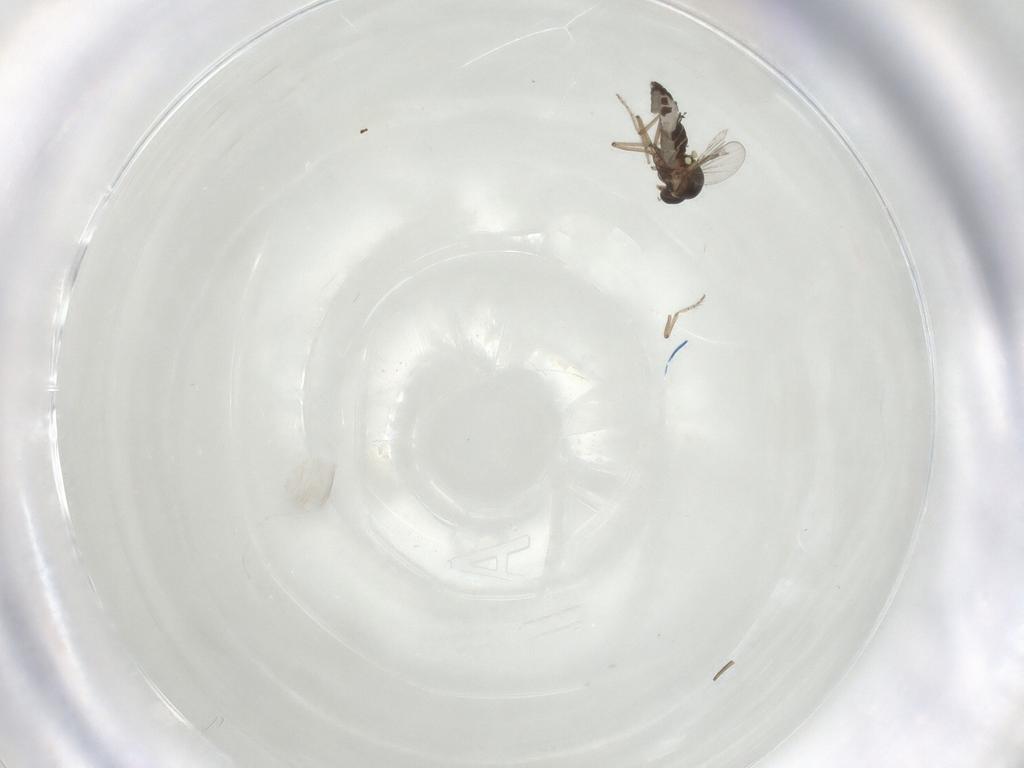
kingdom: Animalia
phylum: Arthropoda
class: Insecta
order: Diptera
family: Ceratopogonidae
